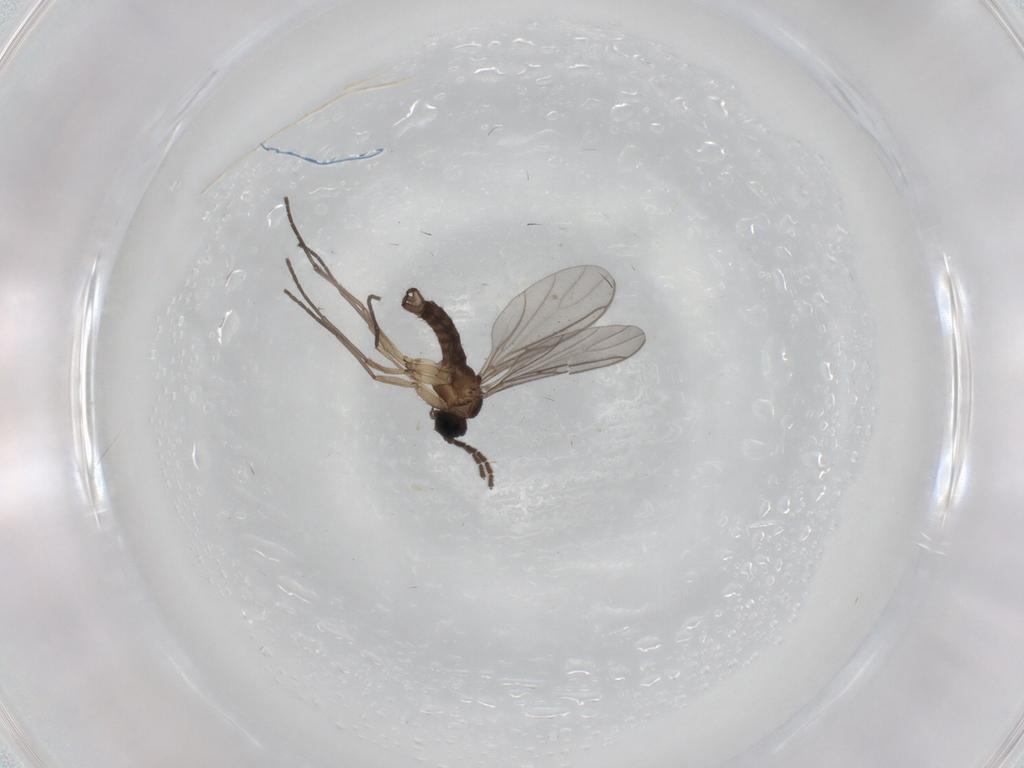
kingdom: Animalia
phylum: Arthropoda
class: Insecta
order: Diptera
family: Sciaridae
